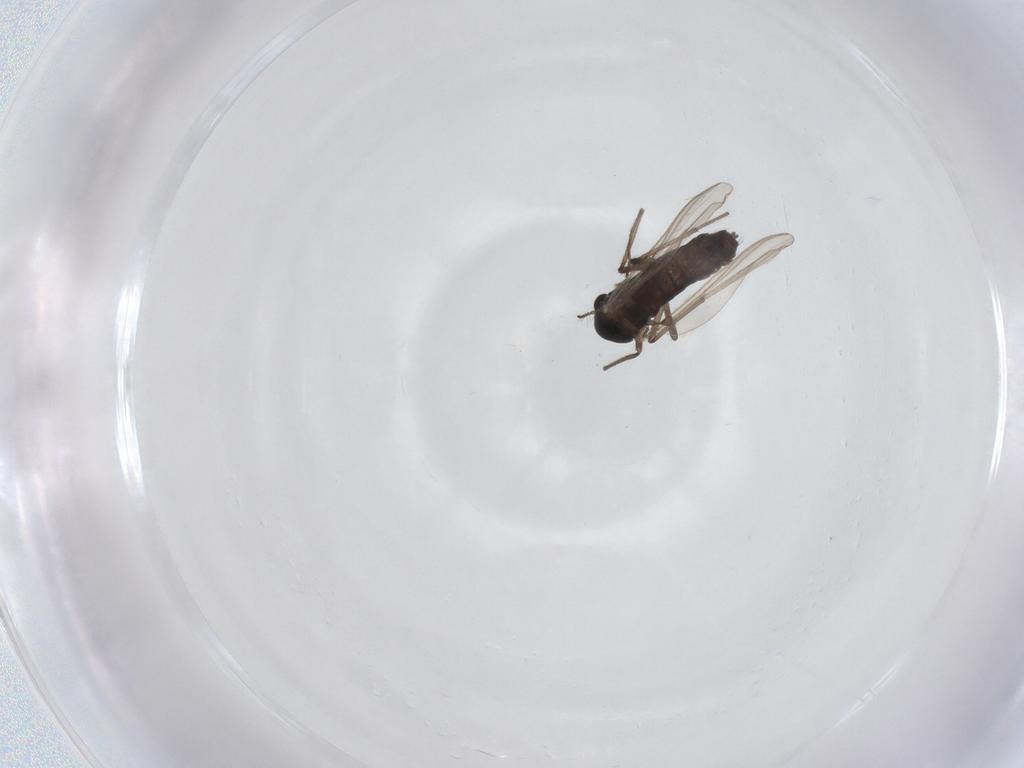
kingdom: Animalia
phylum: Arthropoda
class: Insecta
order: Diptera
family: Chironomidae
